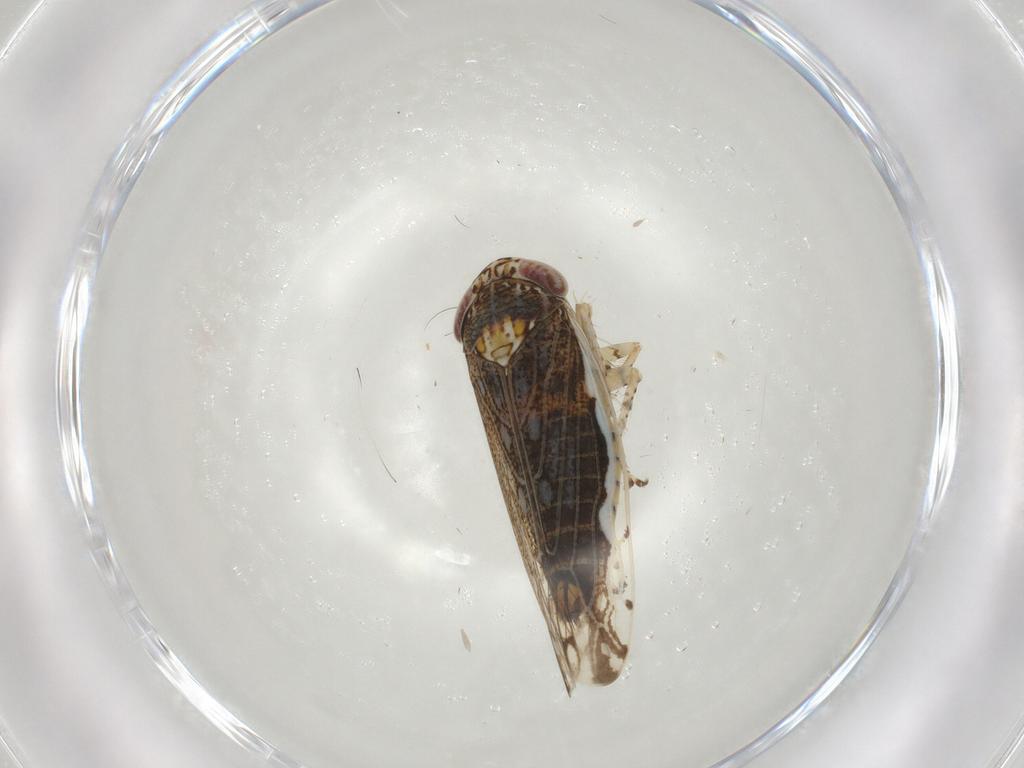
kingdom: Animalia
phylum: Arthropoda
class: Insecta
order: Hemiptera
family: Cicadellidae
